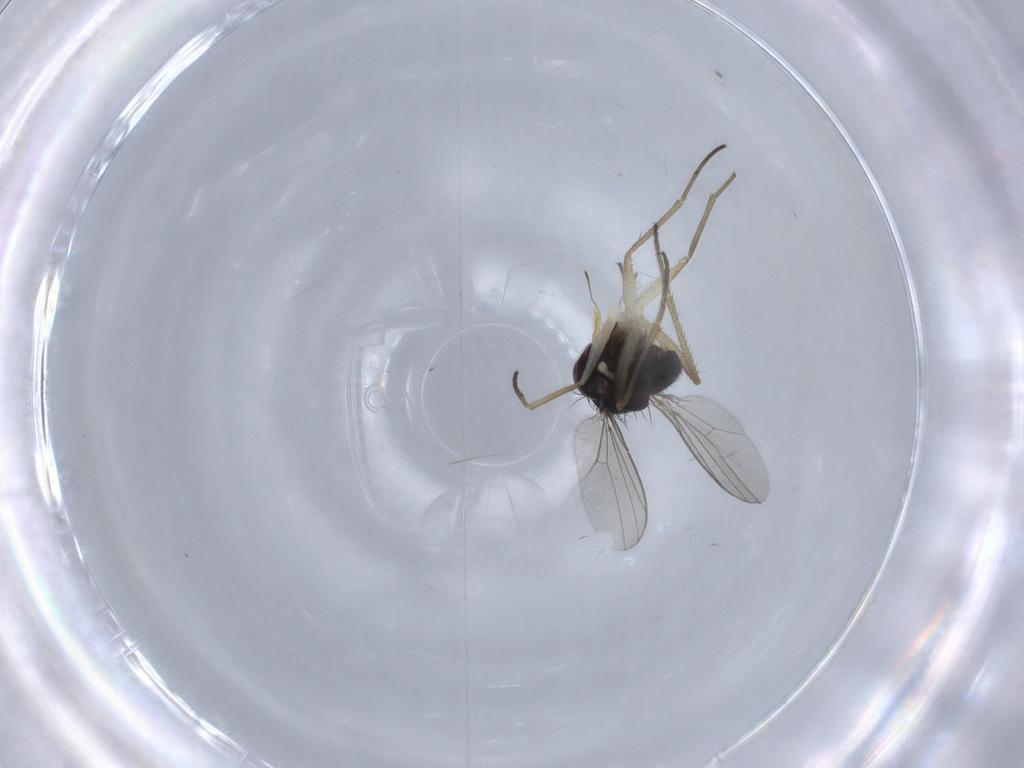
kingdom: Animalia
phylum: Arthropoda
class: Insecta
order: Diptera
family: Dolichopodidae
